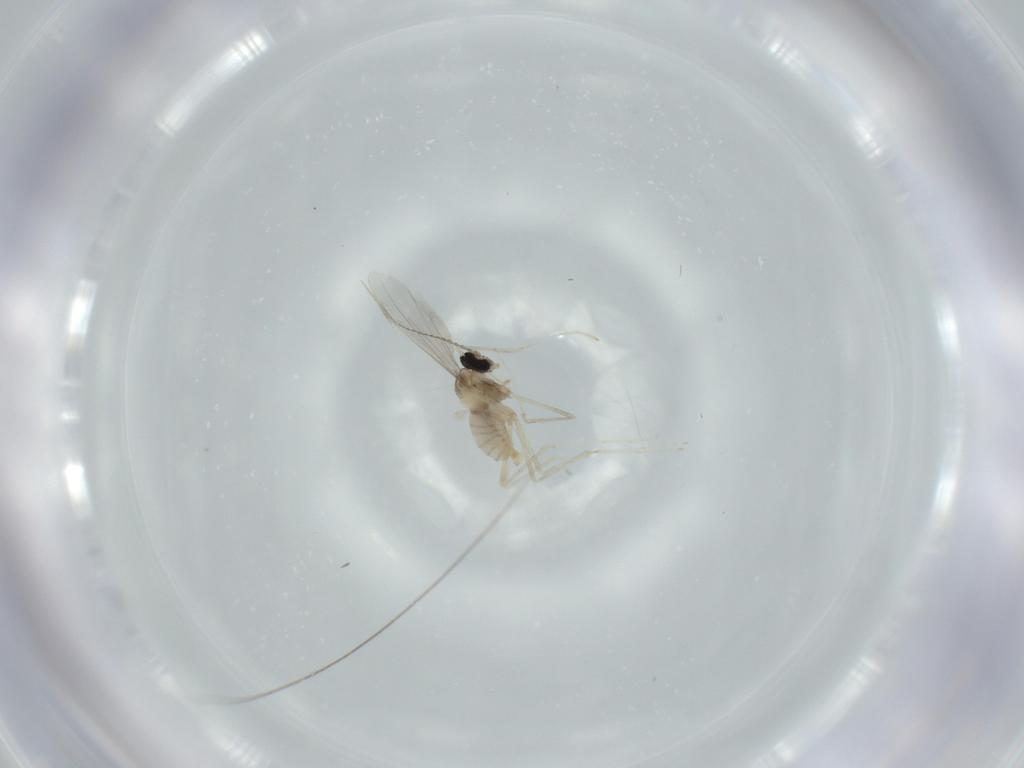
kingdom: Animalia
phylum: Arthropoda
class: Insecta
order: Diptera
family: Cecidomyiidae
